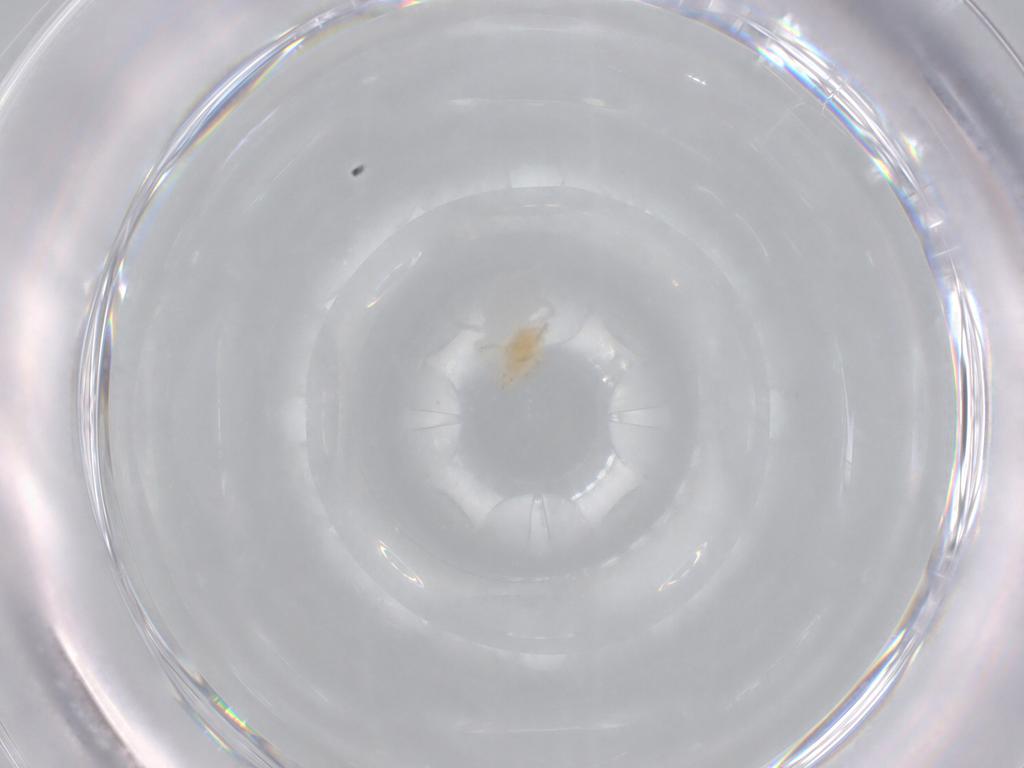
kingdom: Animalia
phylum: Arthropoda
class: Arachnida
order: Trombidiformes
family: Erythraeidae
